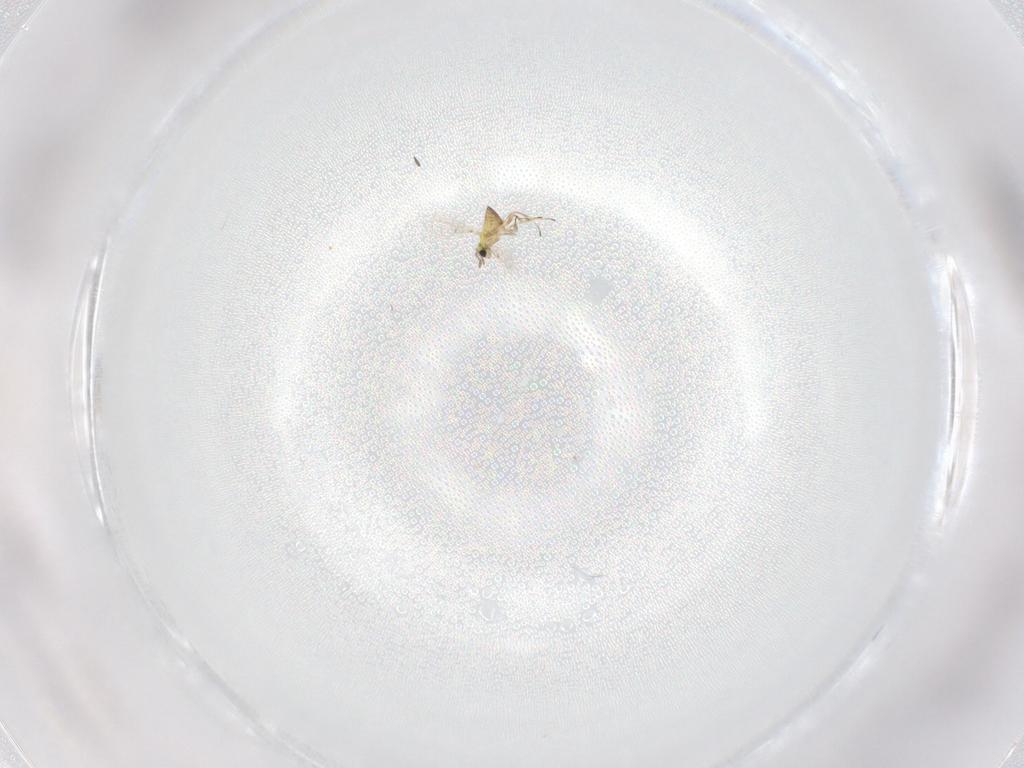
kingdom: Animalia
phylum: Arthropoda
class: Insecta
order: Hymenoptera
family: Trichogrammatidae
